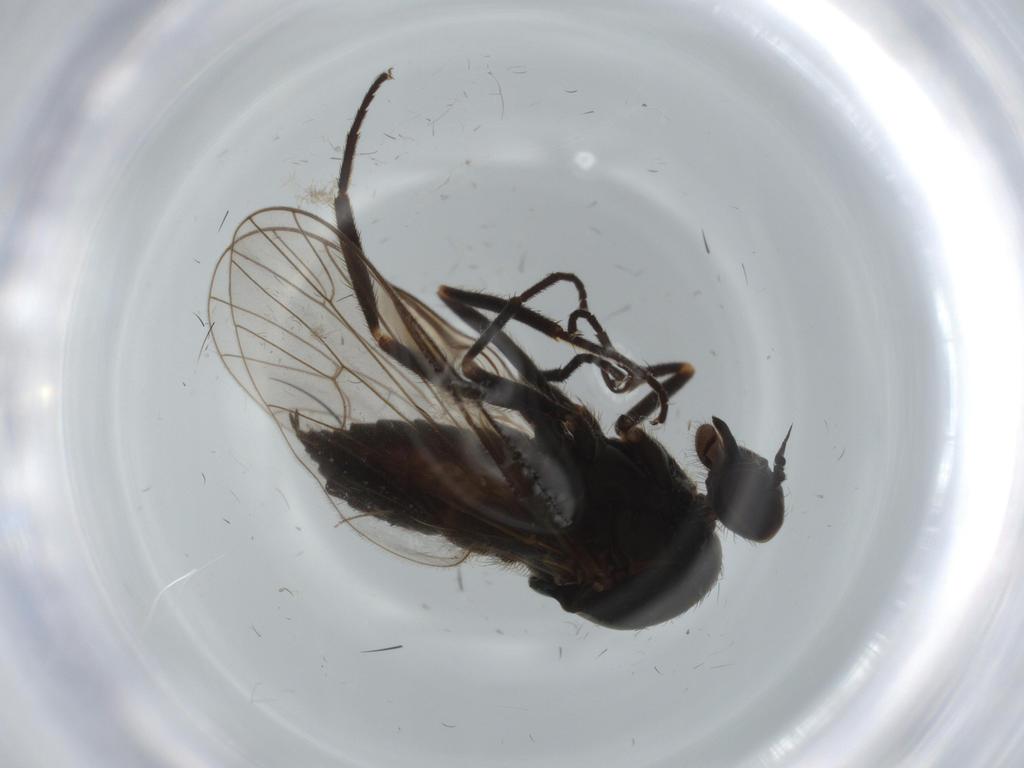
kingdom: Animalia
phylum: Arthropoda
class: Insecta
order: Diptera
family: Empididae
